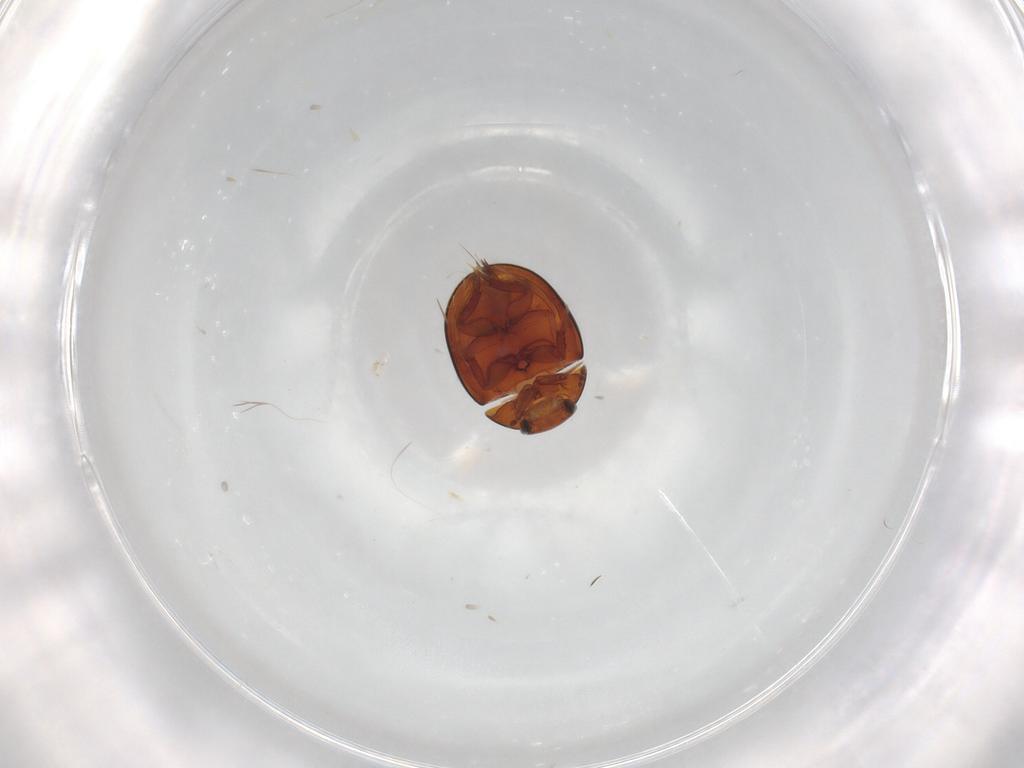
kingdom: Animalia
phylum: Arthropoda
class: Insecta
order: Coleoptera
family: Hydrophilidae
